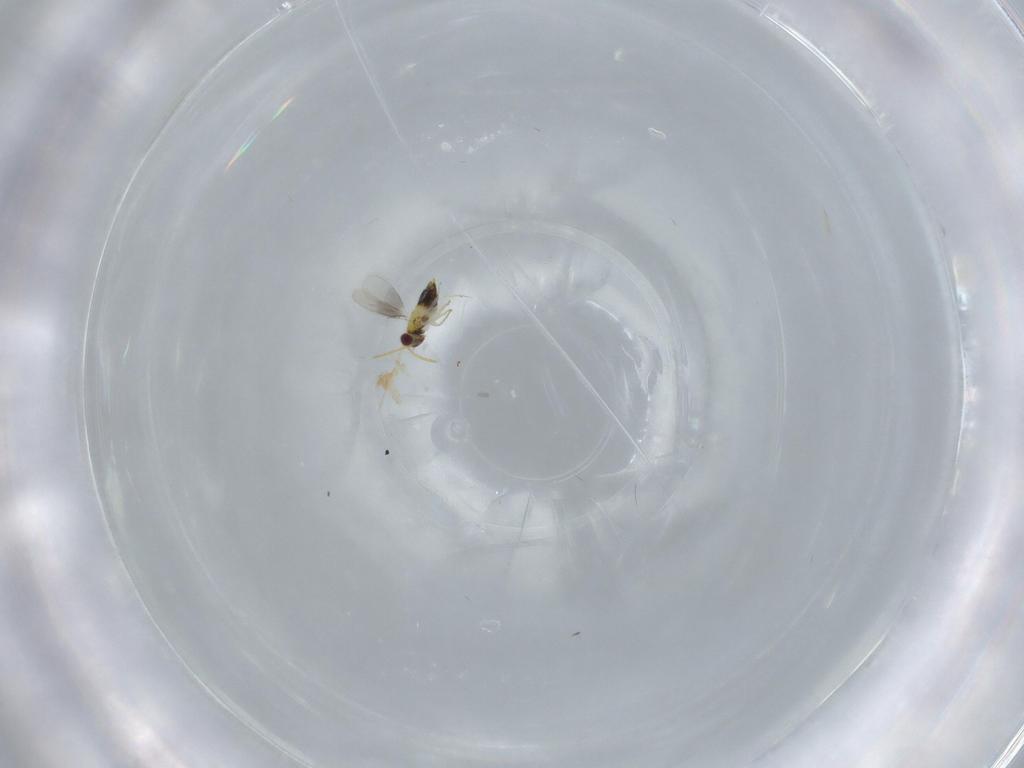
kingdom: Animalia
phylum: Arthropoda
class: Insecta
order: Hymenoptera
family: Aphelinidae
